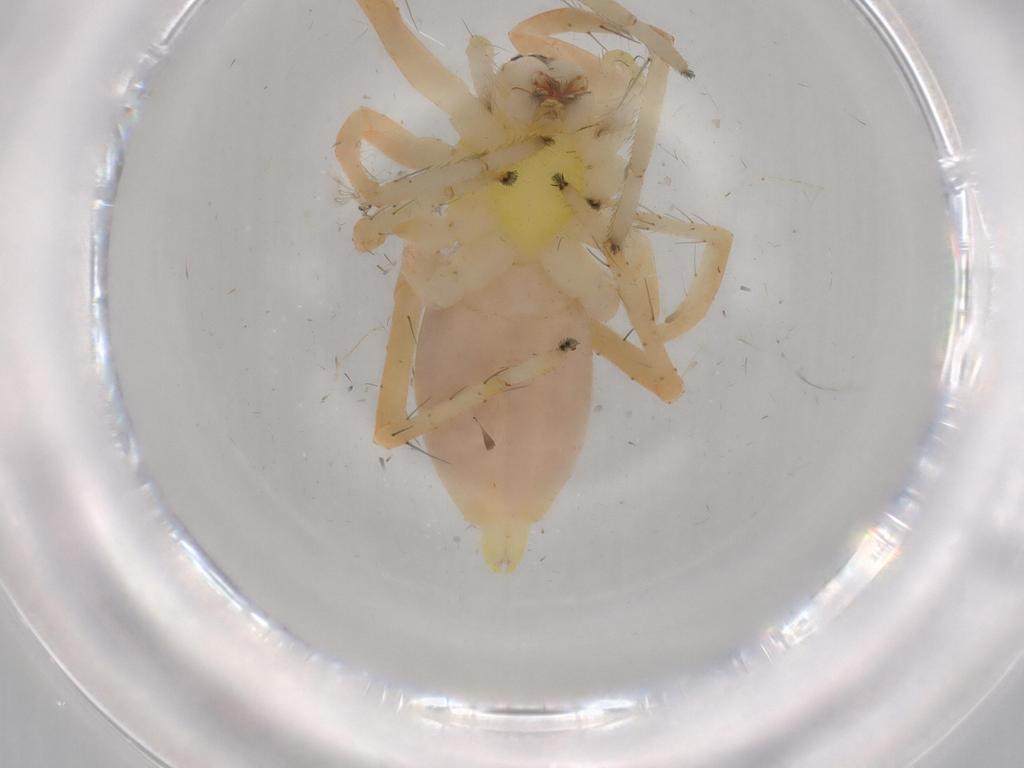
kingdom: Animalia
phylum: Arthropoda
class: Arachnida
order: Araneae
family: Anyphaenidae
